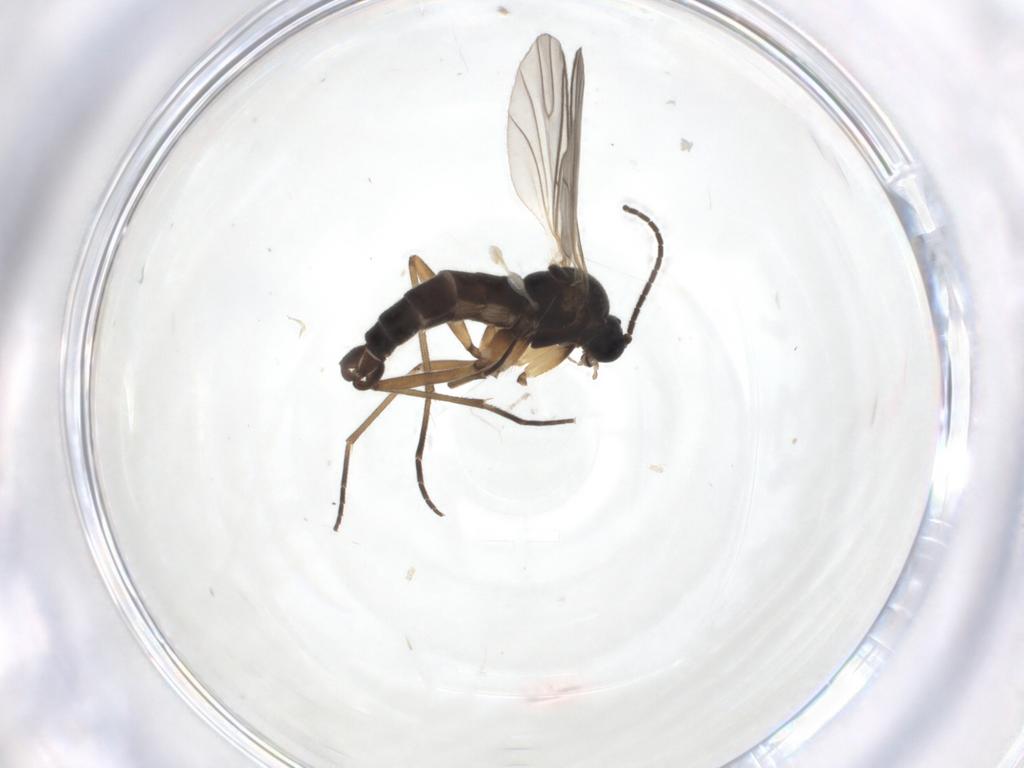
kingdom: Animalia
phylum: Arthropoda
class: Insecta
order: Diptera
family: Sciaridae
